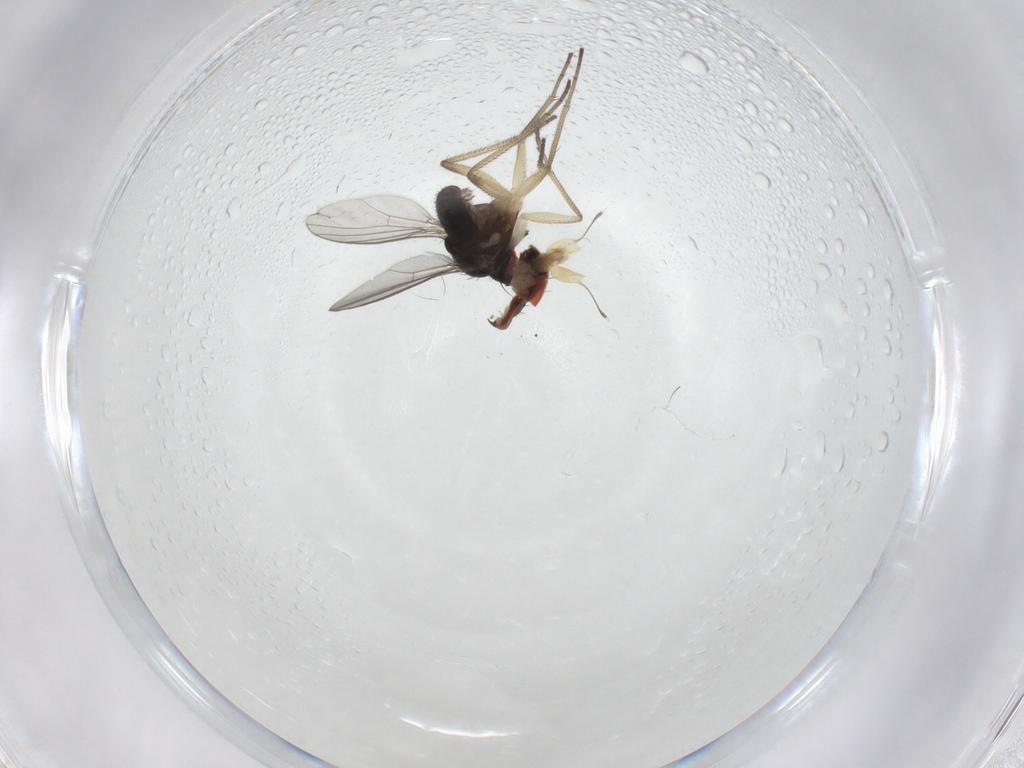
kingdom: Animalia
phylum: Arthropoda
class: Insecta
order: Diptera
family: Dolichopodidae
